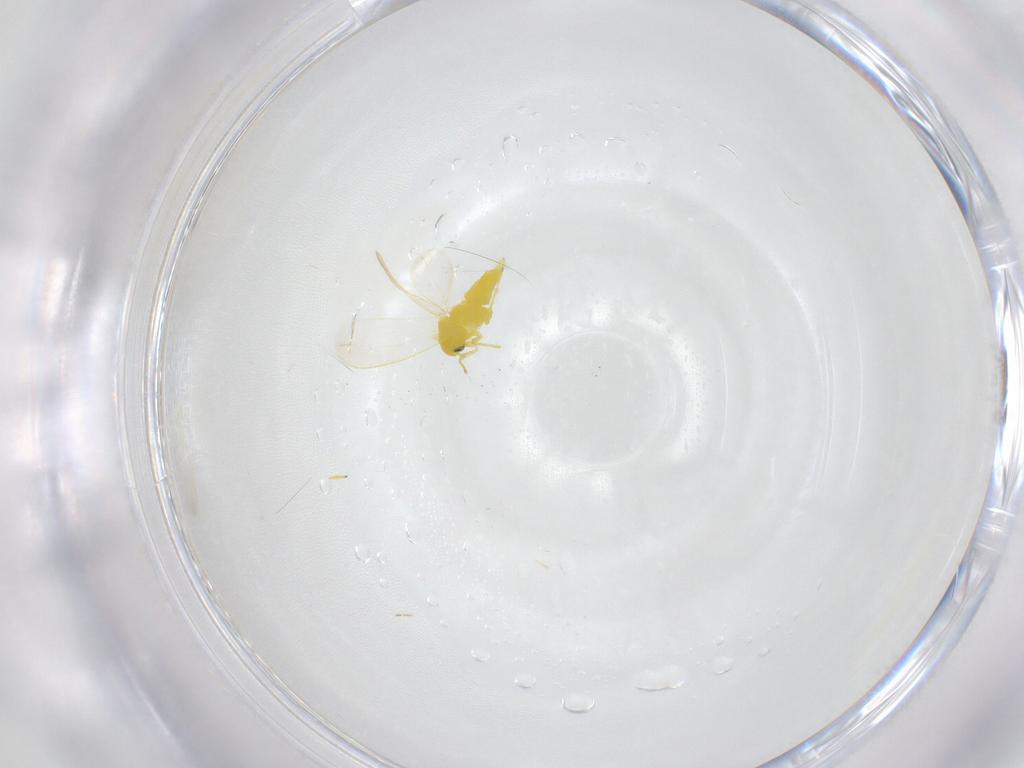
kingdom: Animalia
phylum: Arthropoda
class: Insecta
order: Hemiptera
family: Aleyrodidae
